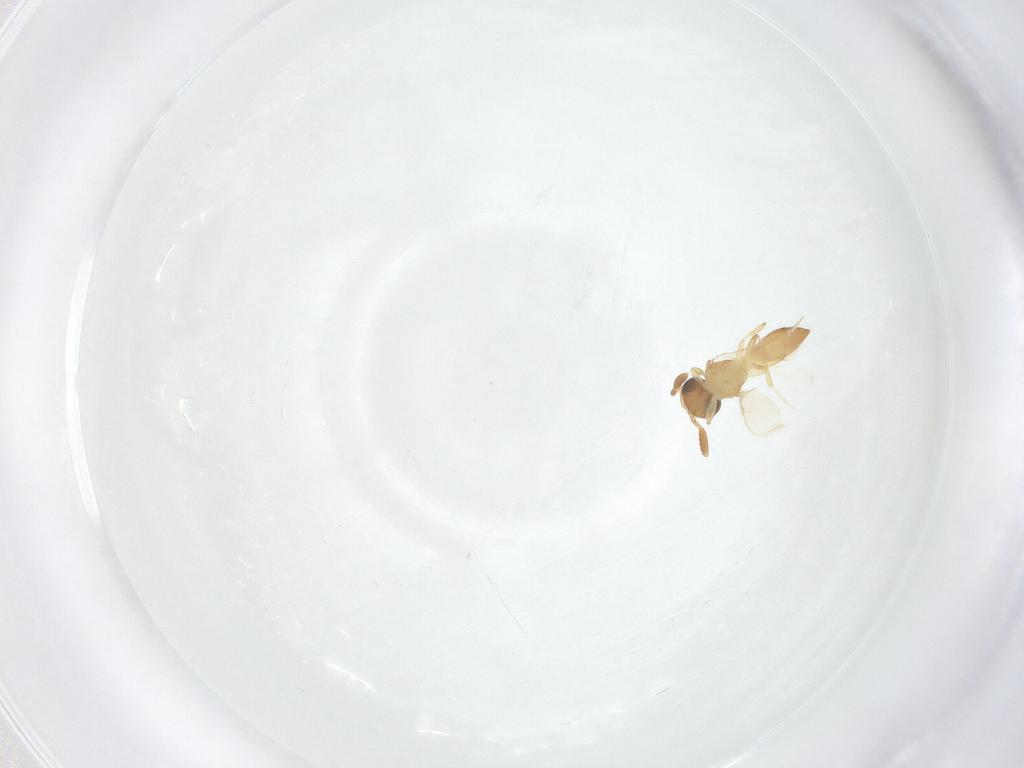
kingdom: Animalia
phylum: Arthropoda
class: Insecta
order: Hymenoptera
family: Scelionidae
